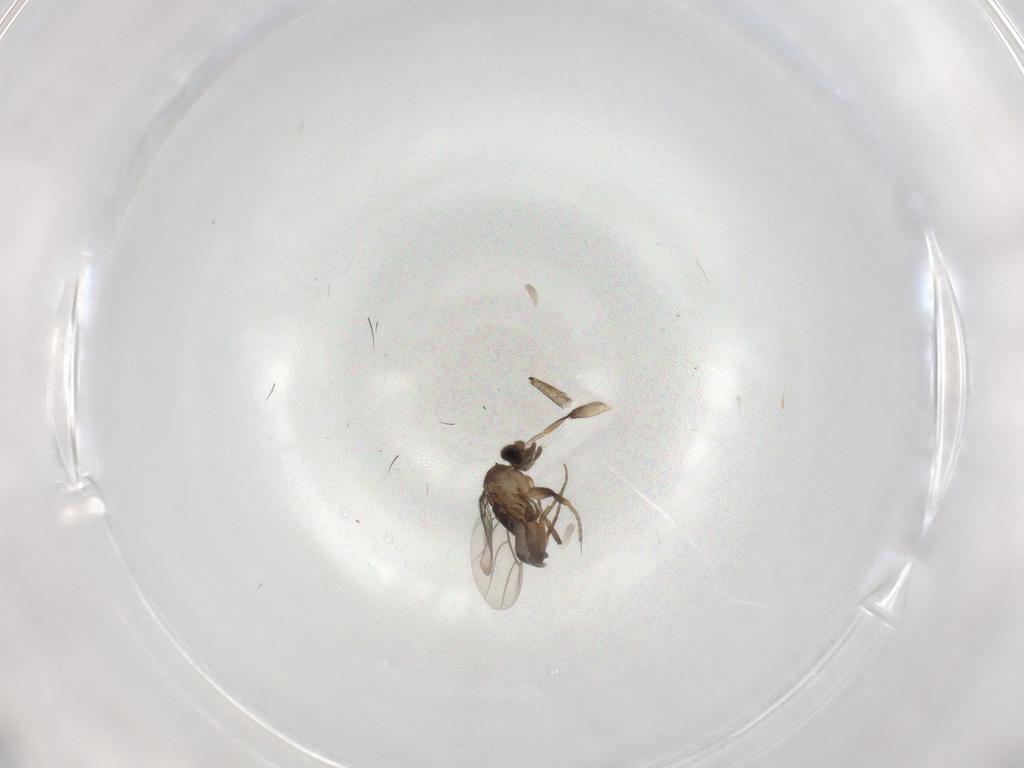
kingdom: Animalia
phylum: Arthropoda
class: Insecta
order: Diptera
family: Phoridae
